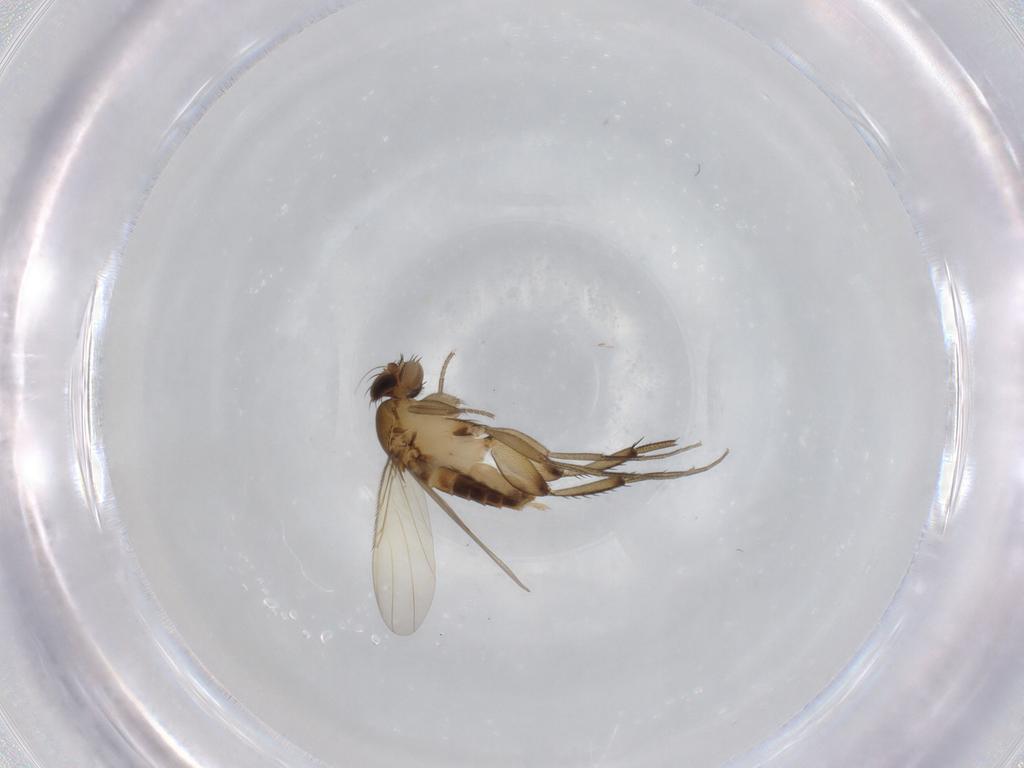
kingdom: Animalia
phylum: Arthropoda
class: Insecta
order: Diptera
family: Phoridae
